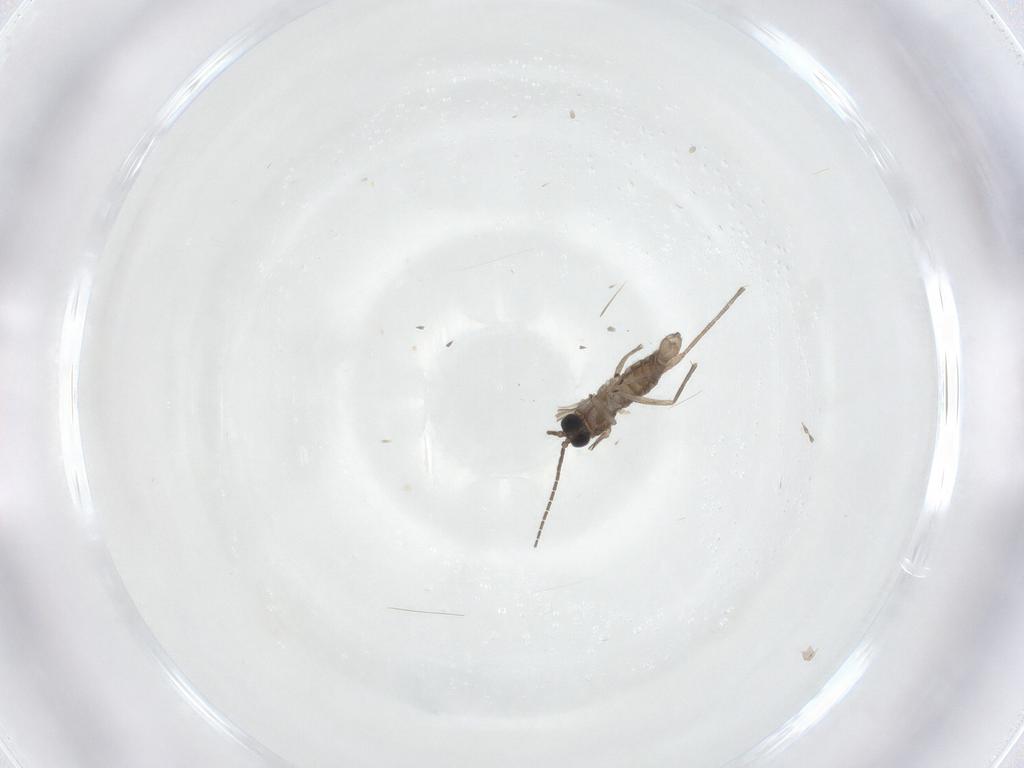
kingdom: Animalia
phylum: Arthropoda
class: Insecta
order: Diptera
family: Sciaridae
